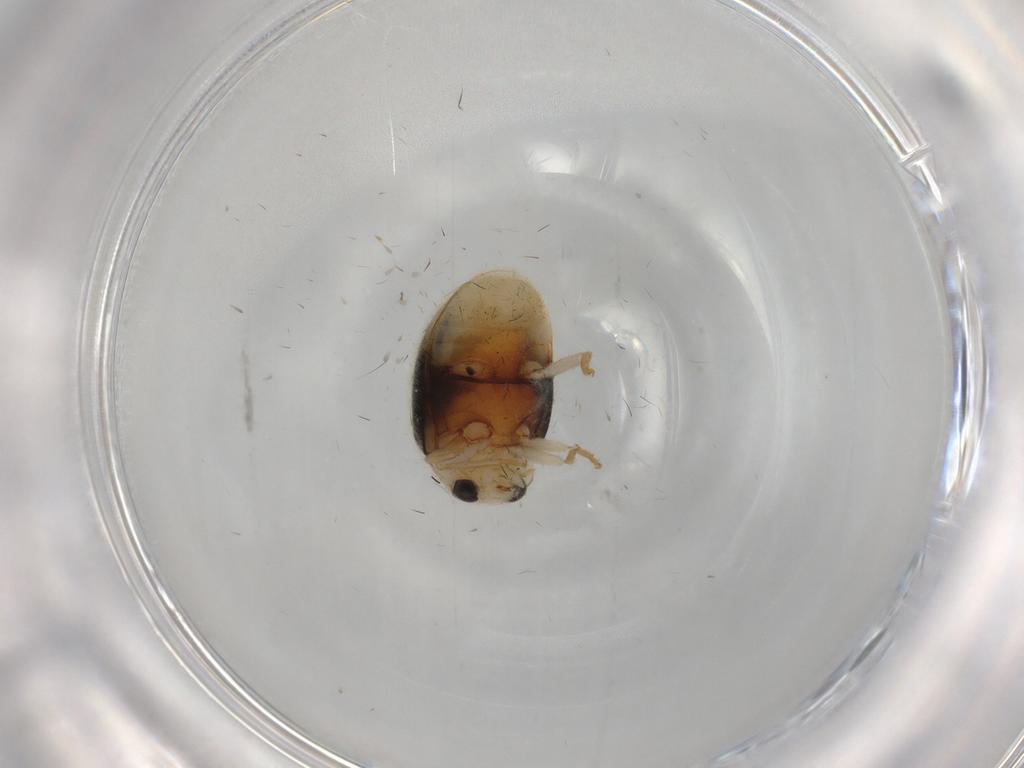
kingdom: Animalia
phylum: Arthropoda
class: Insecta
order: Coleoptera
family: Coccinellidae
